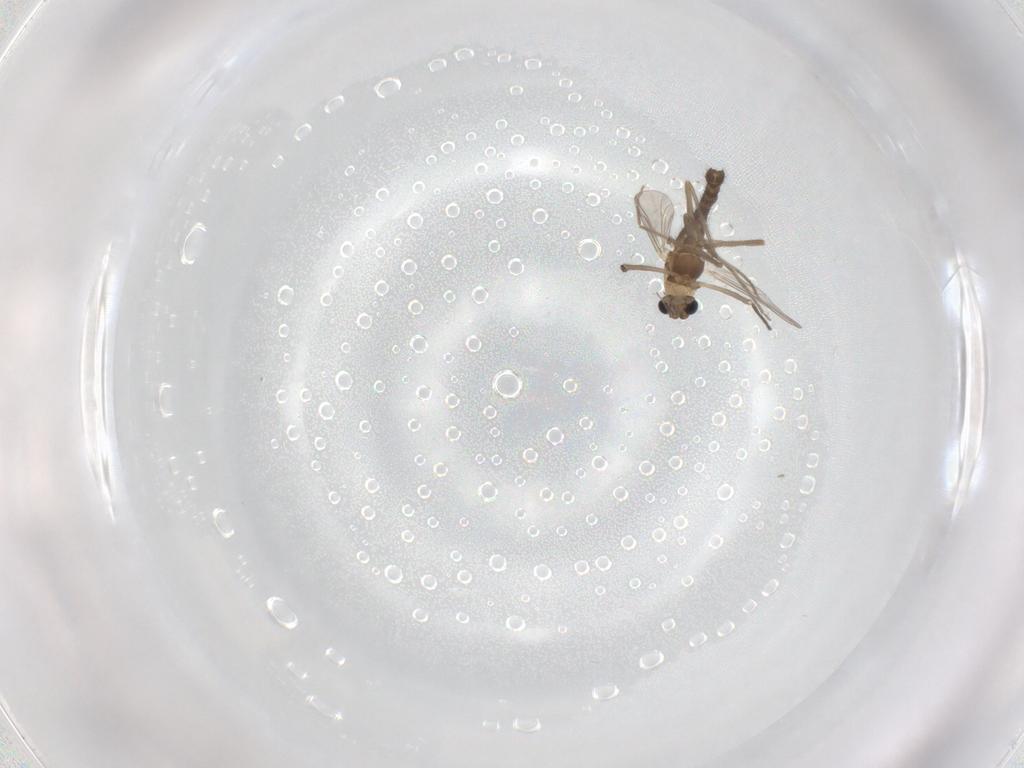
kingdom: Animalia
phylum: Arthropoda
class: Insecta
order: Diptera
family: Chironomidae
